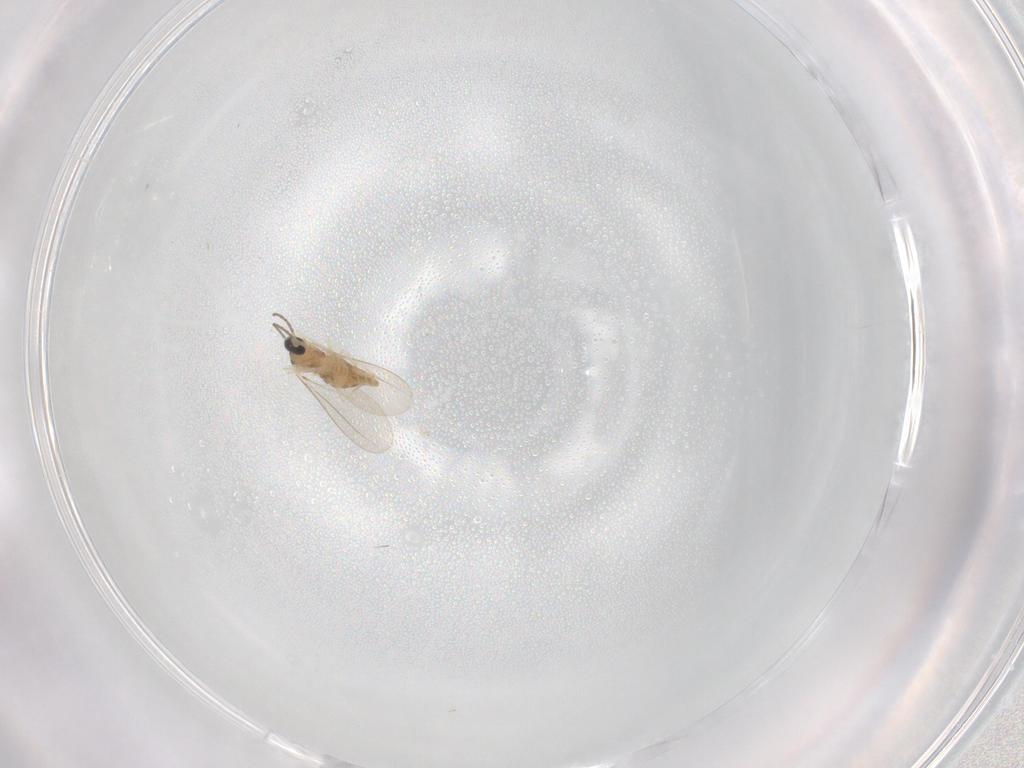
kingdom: Animalia
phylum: Arthropoda
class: Insecta
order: Diptera
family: Cecidomyiidae
